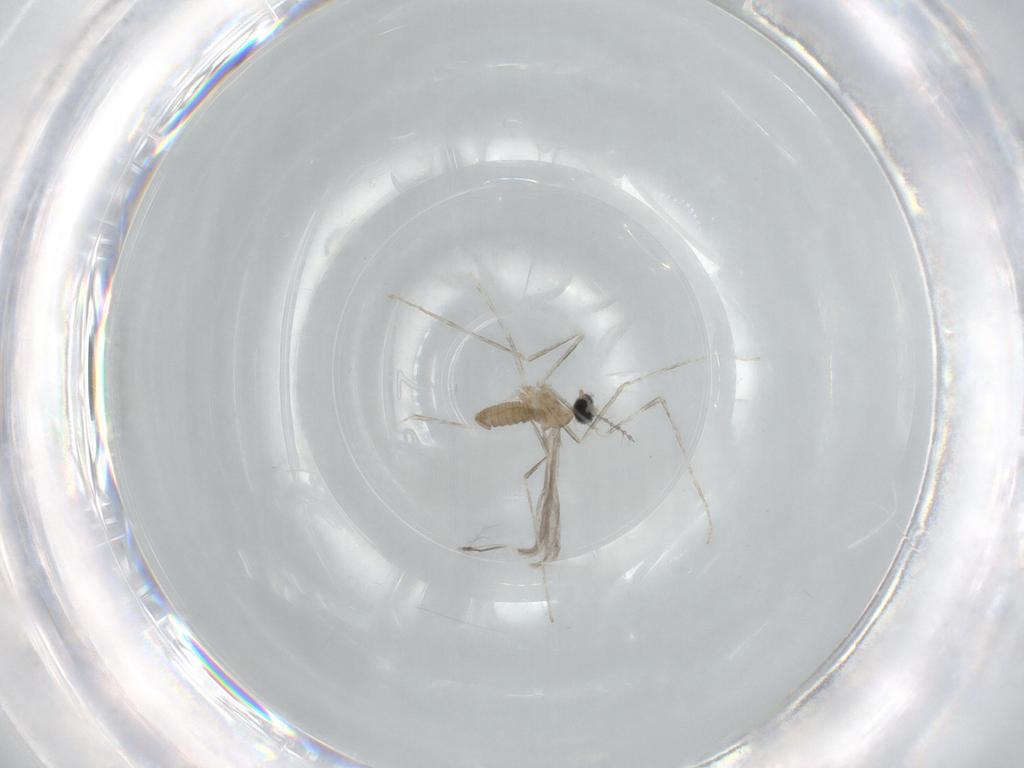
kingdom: Animalia
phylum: Arthropoda
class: Insecta
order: Diptera
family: Chironomidae
